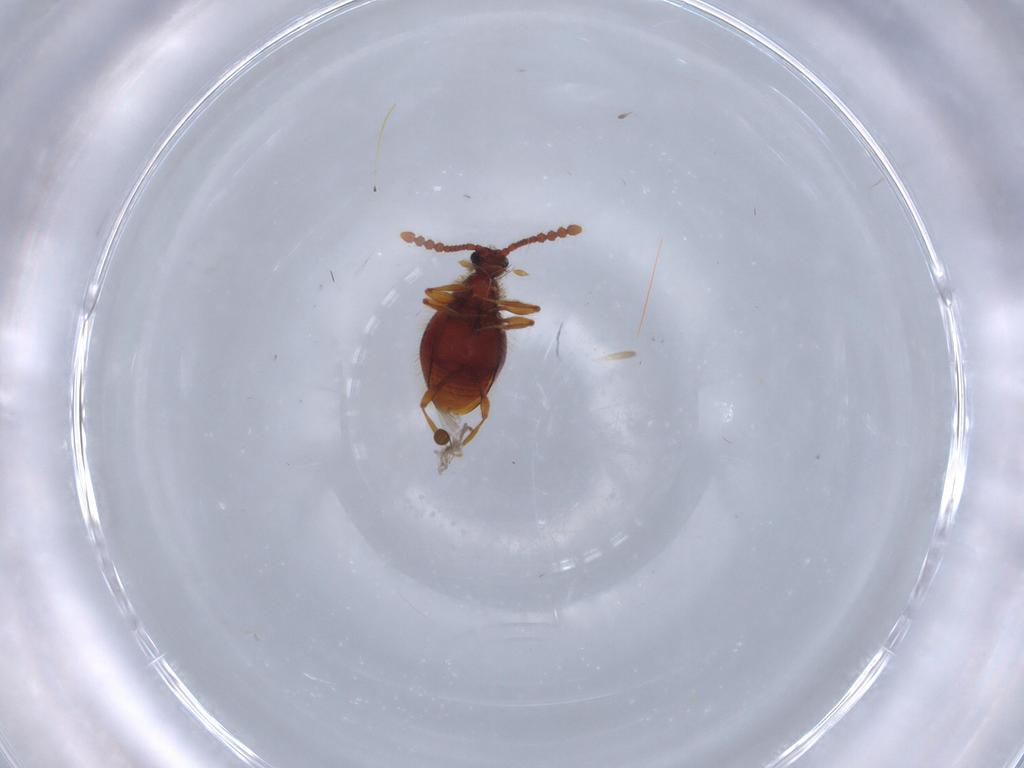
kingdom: Animalia
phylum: Arthropoda
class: Insecta
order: Coleoptera
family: Staphylinidae
